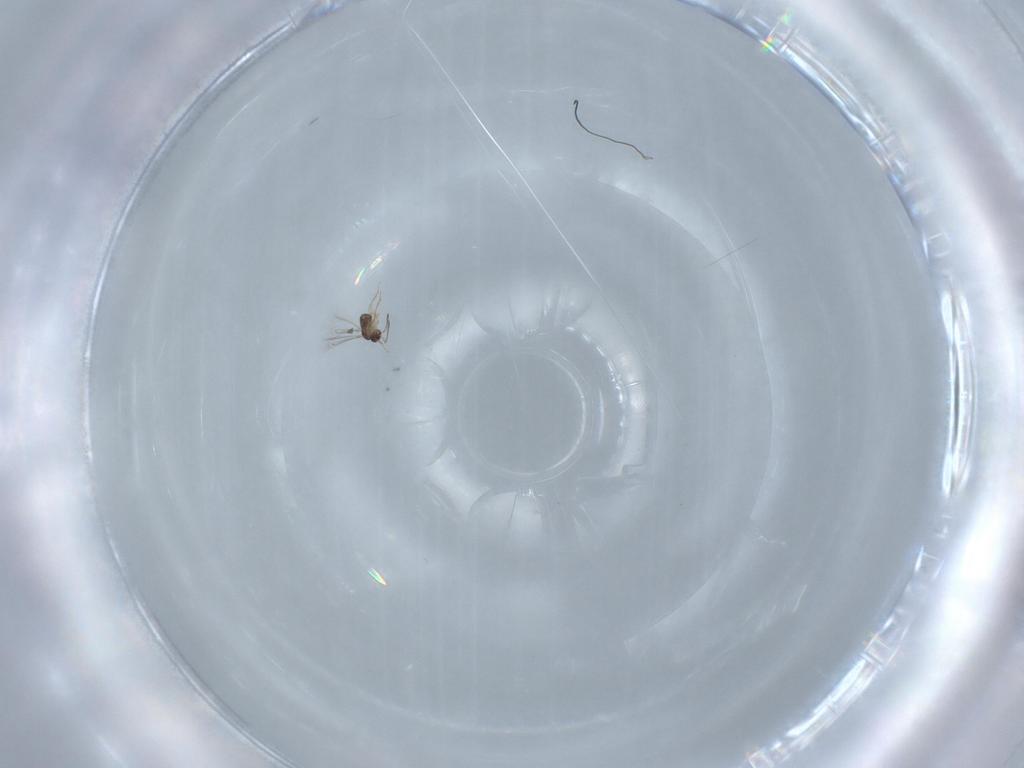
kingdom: Animalia
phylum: Arthropoda
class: Insecta
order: Hymenoptera
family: Mymaridae
